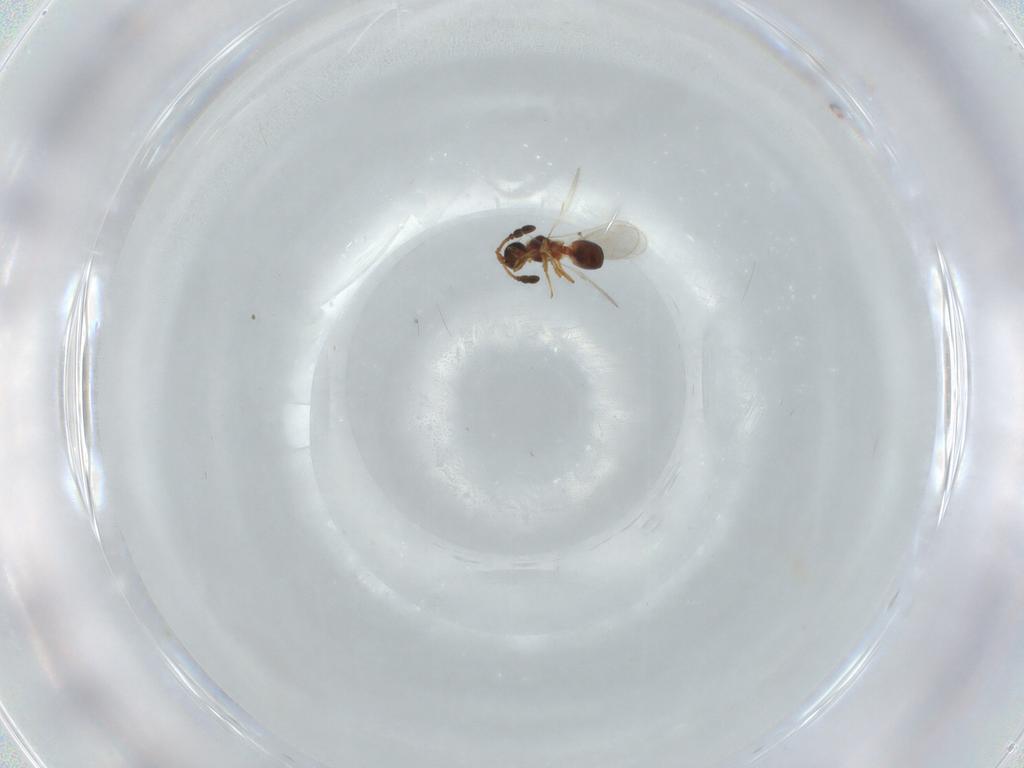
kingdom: Animalia
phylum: Arthropoda
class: Insecta
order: Hymenoptera
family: Diapriidae
